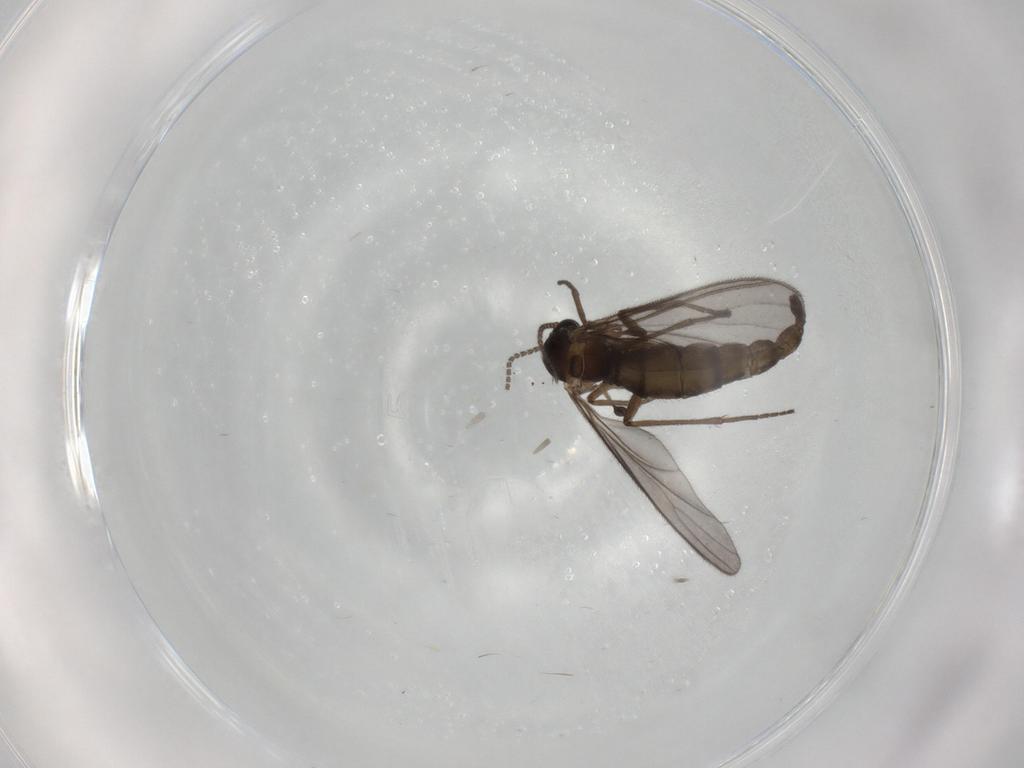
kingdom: Animalia
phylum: Arthropoda
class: Insecta
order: Diptera
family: Sciaridae
